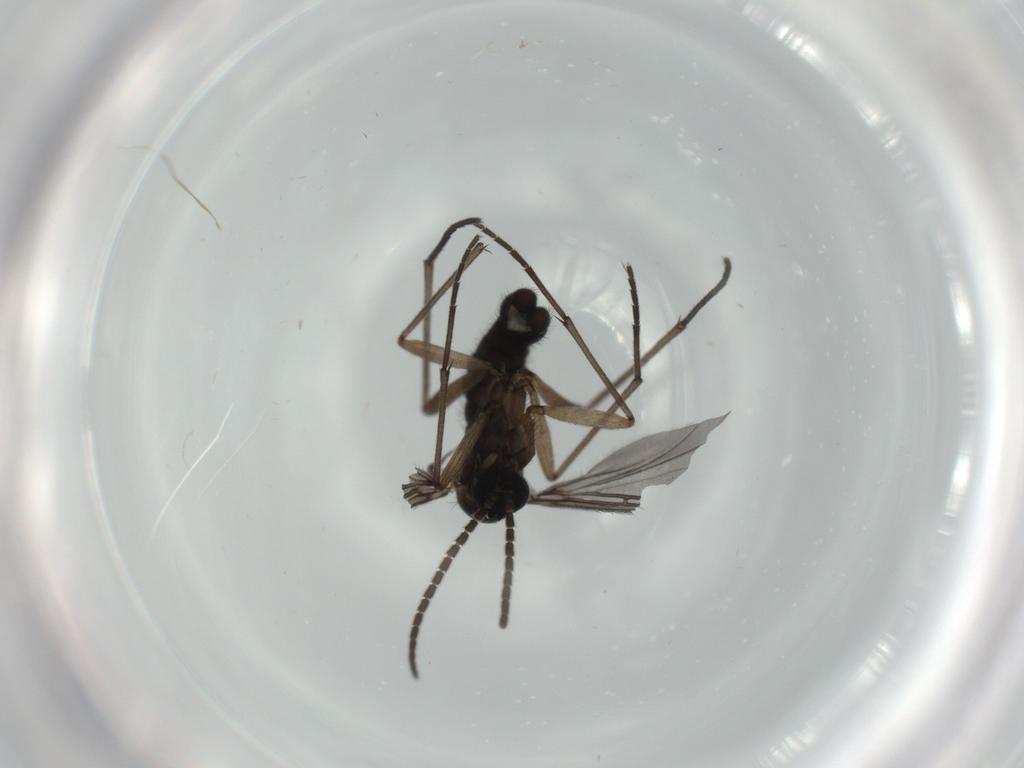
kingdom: Animalia
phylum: Arthropoda
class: Insecta
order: Diptera
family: Sciaridae
